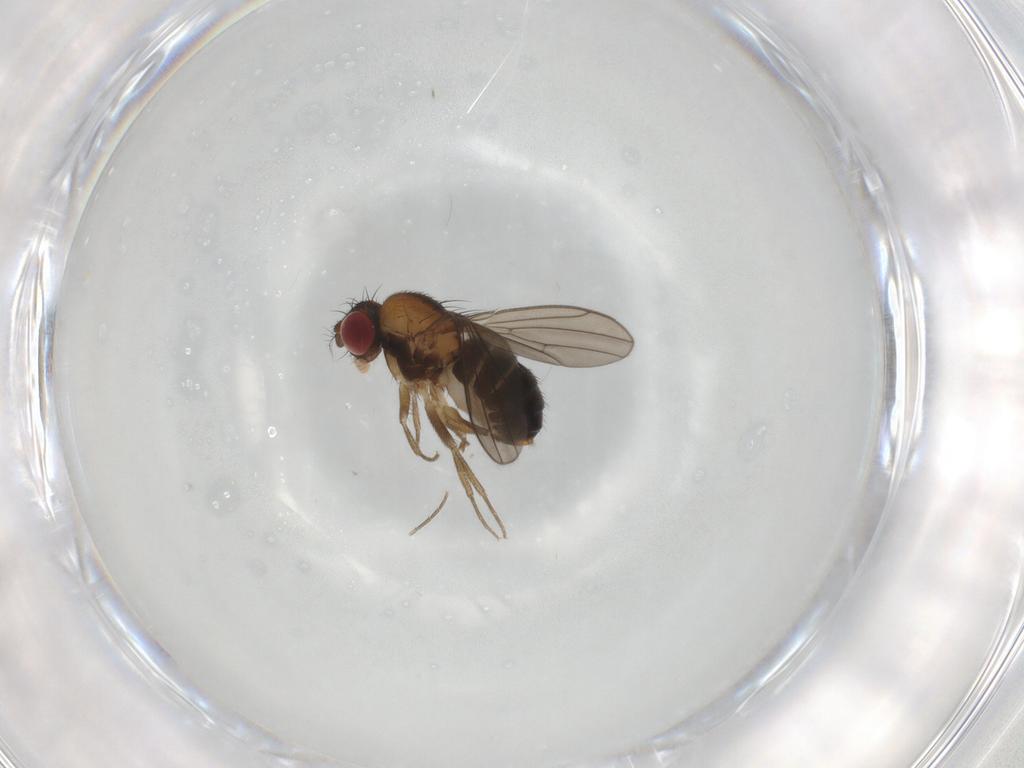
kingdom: Animalia
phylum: Arthropoda
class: Insecta
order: Diptera
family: Drosophilidae
